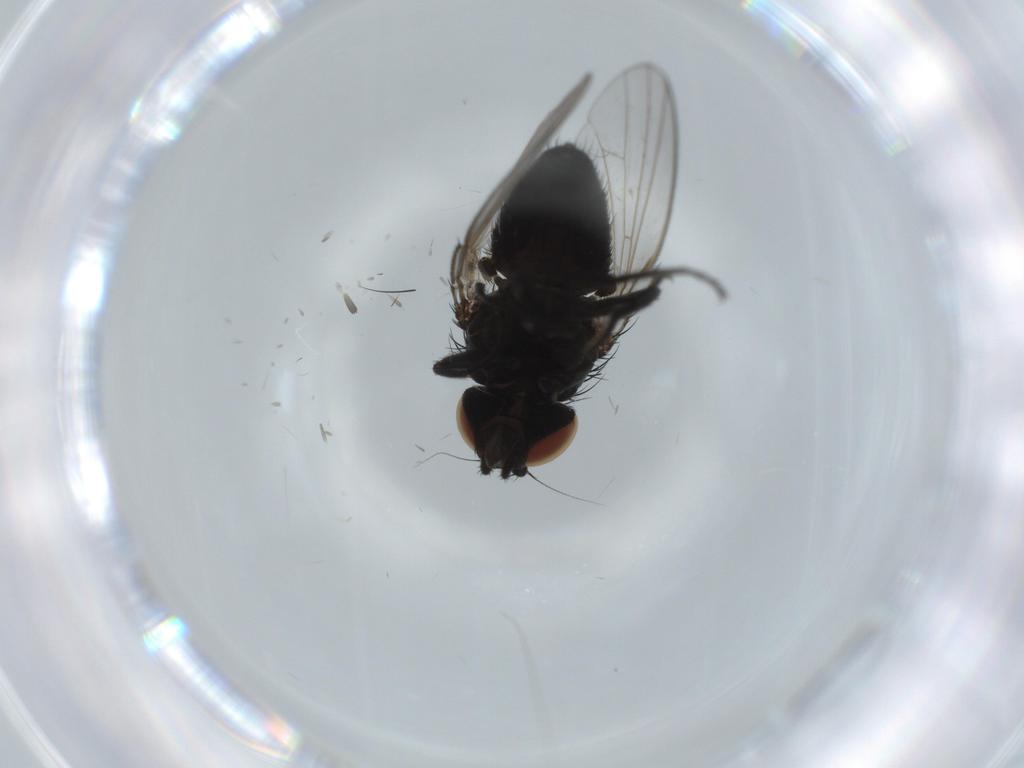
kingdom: Animalia
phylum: Arthropoda
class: Insecta
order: Diptera
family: Milichiidae
